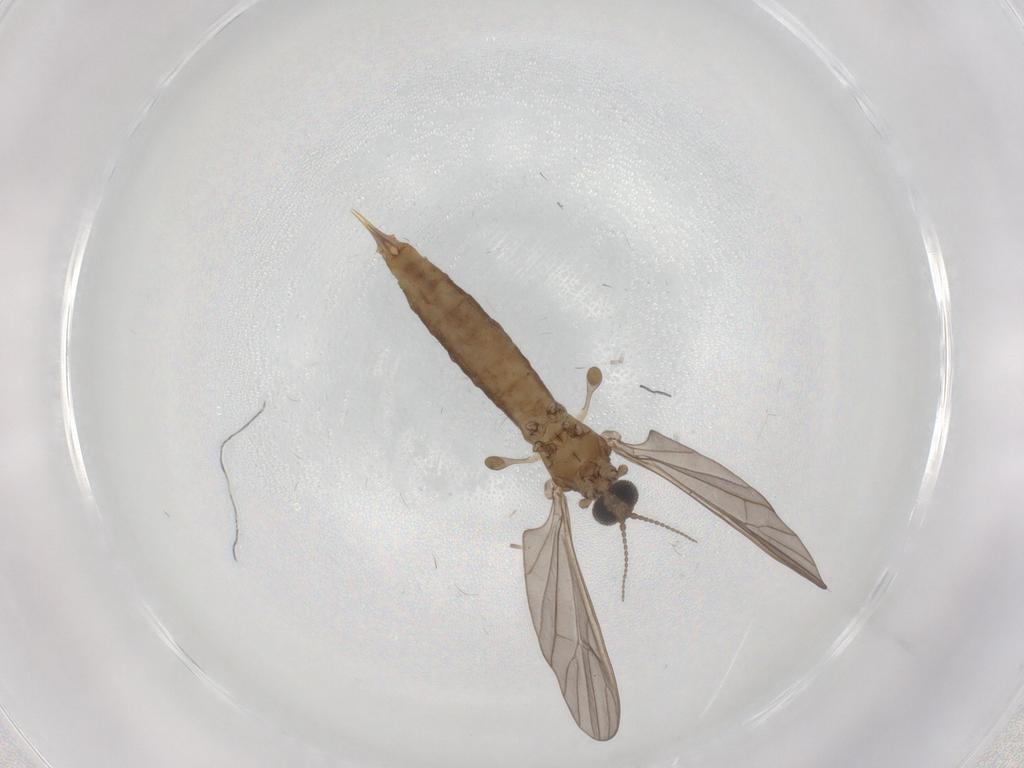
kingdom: Animalia
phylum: Arthropoda
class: Insecta
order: Diptera
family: Limoniidae
